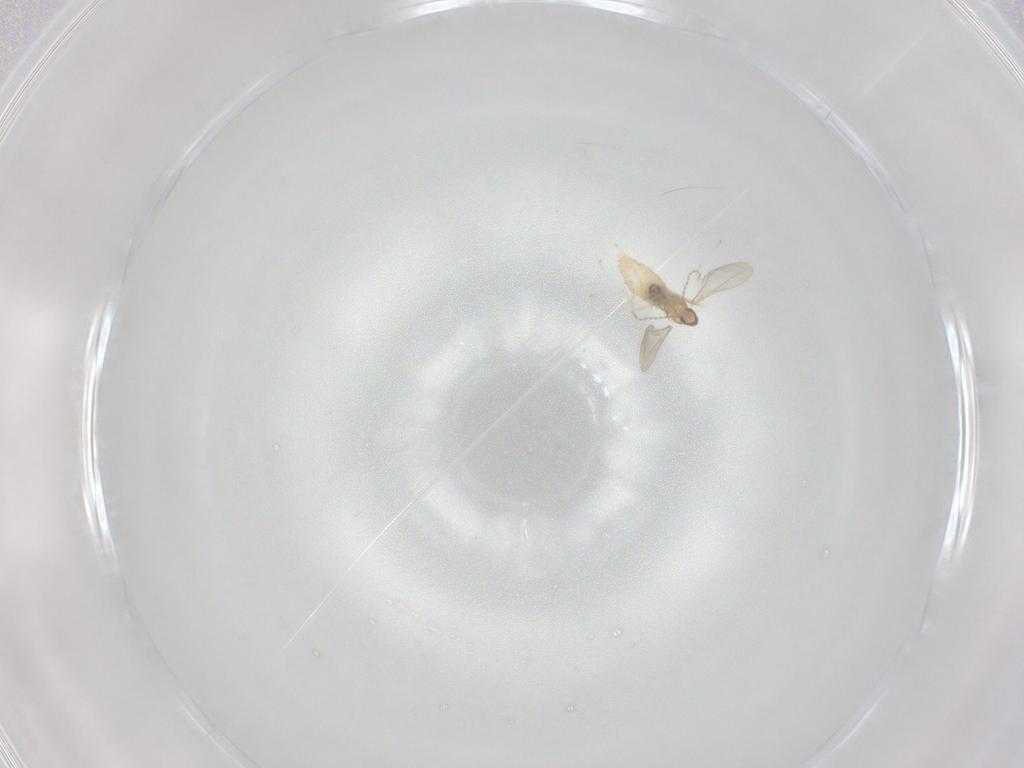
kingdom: Animalia
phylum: Arthropoda
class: Insecta
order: Diptera
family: Cecidomyiidae
